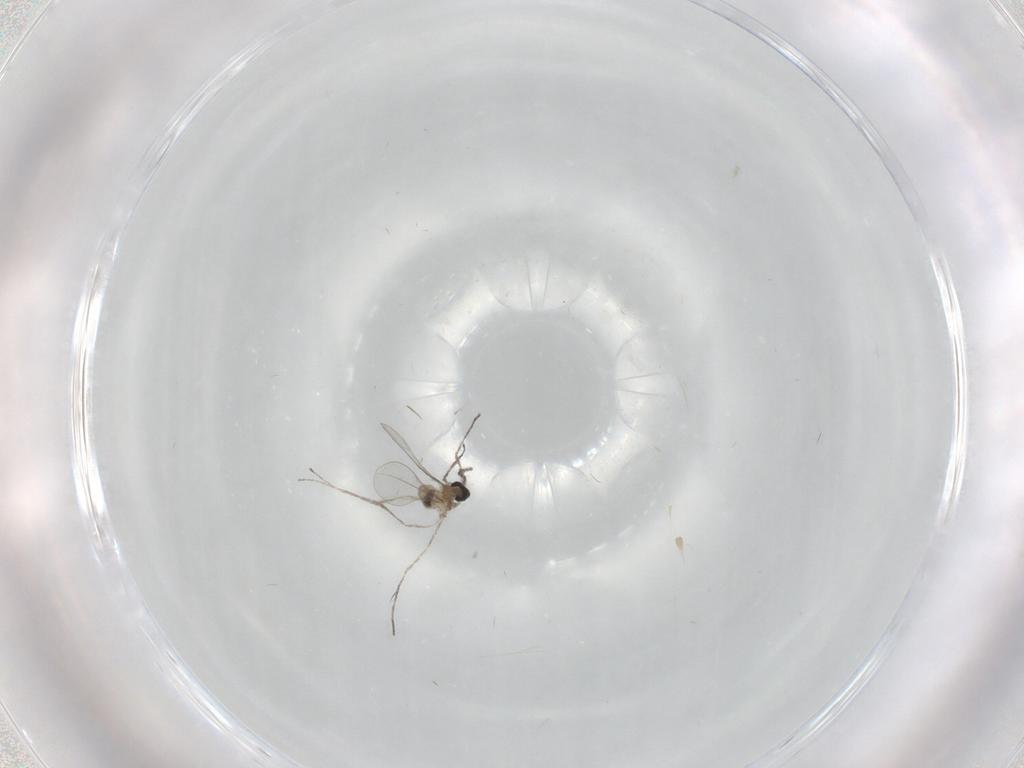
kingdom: Animalia
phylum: Arthropoda
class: Insecta
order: Diptera
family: Cecidomyiidae
